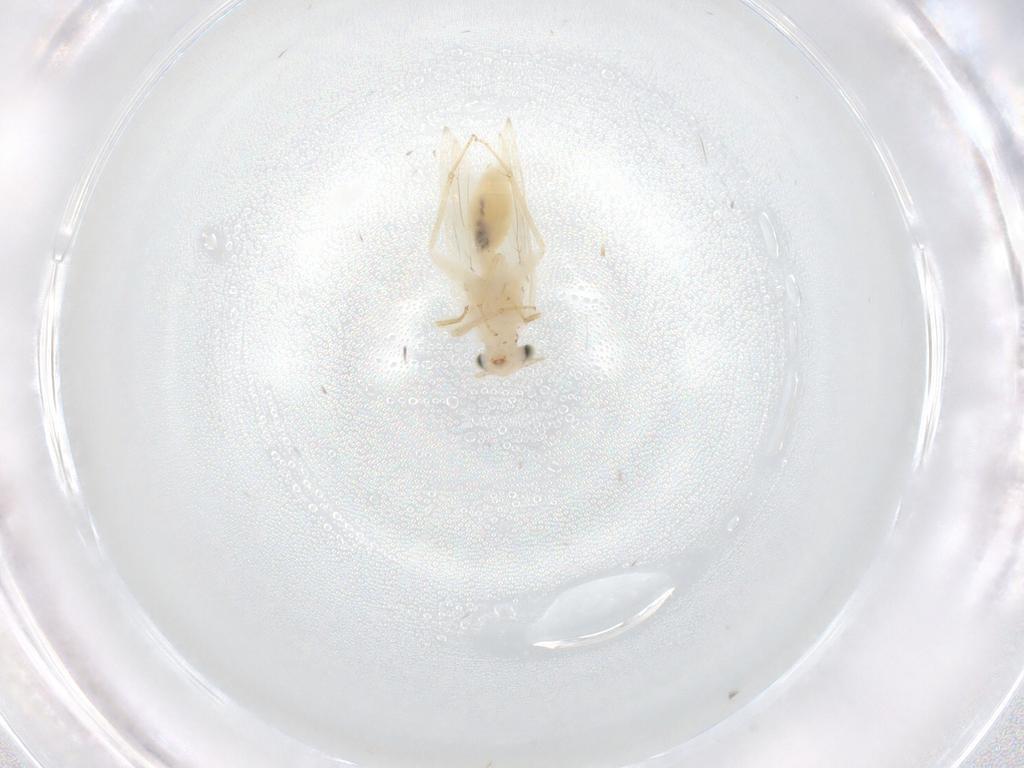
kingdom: Animalia
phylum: Arthropoda
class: Insecta
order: Psocodea
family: Lepidopsocidae
